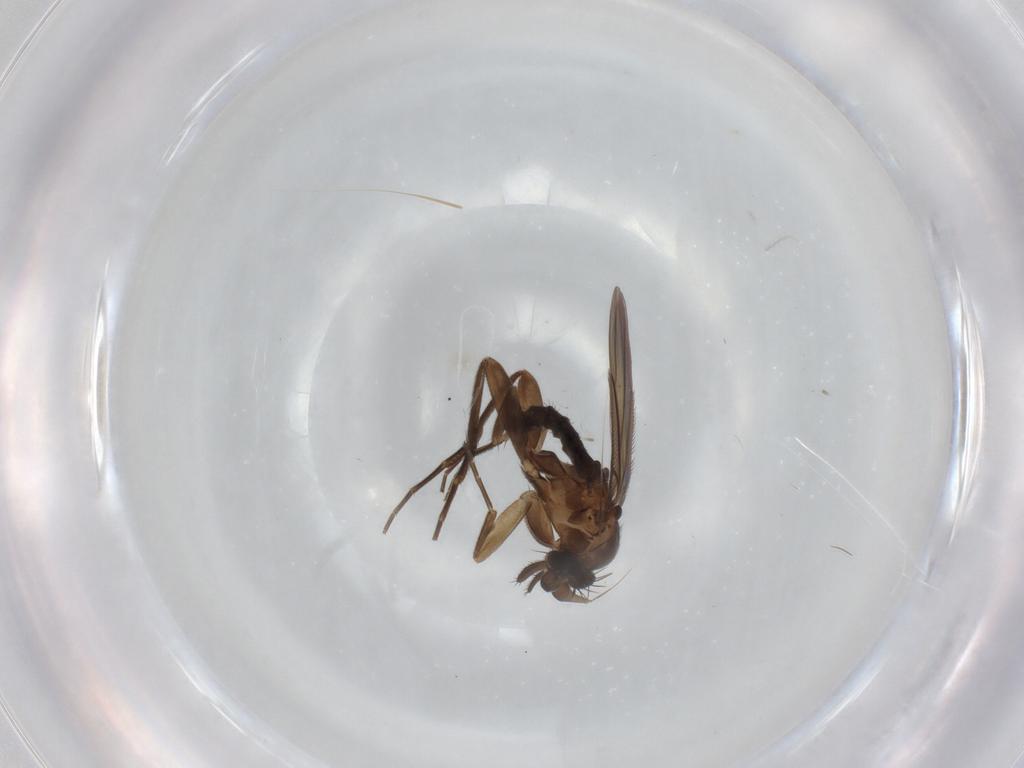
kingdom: Animalia
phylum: Arthropoda
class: Insecta
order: Diptera
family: Phoridae
